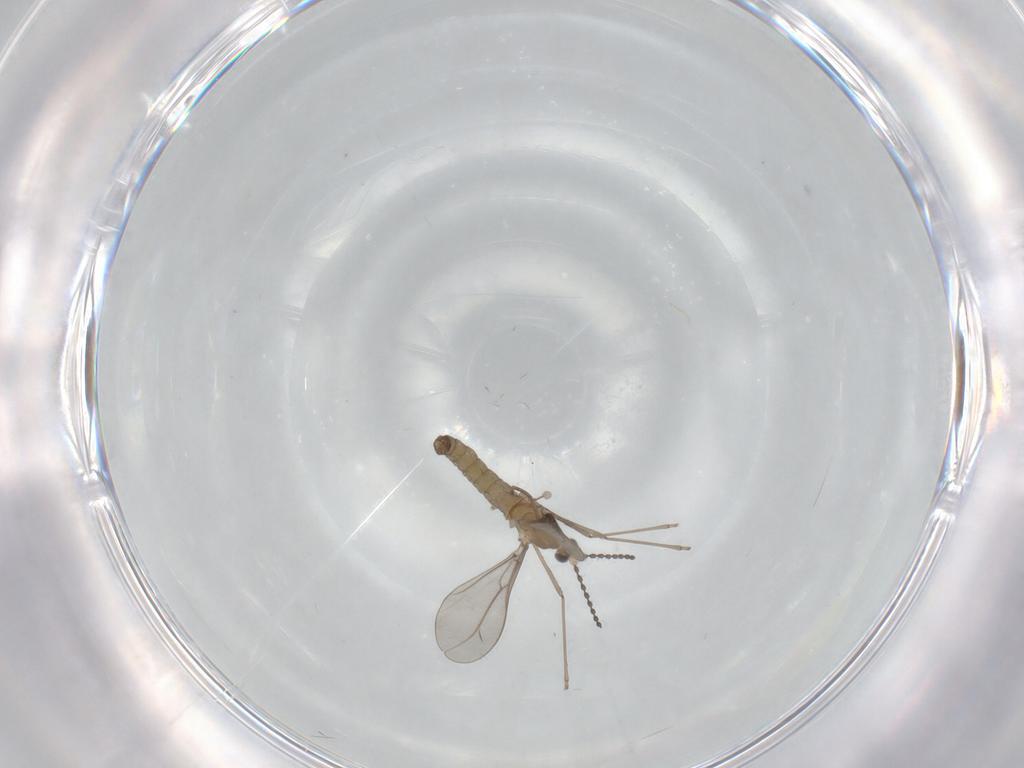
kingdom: Animalia
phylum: Arthropoda
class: Insecta
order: Diptera
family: Cecidomyiidae
